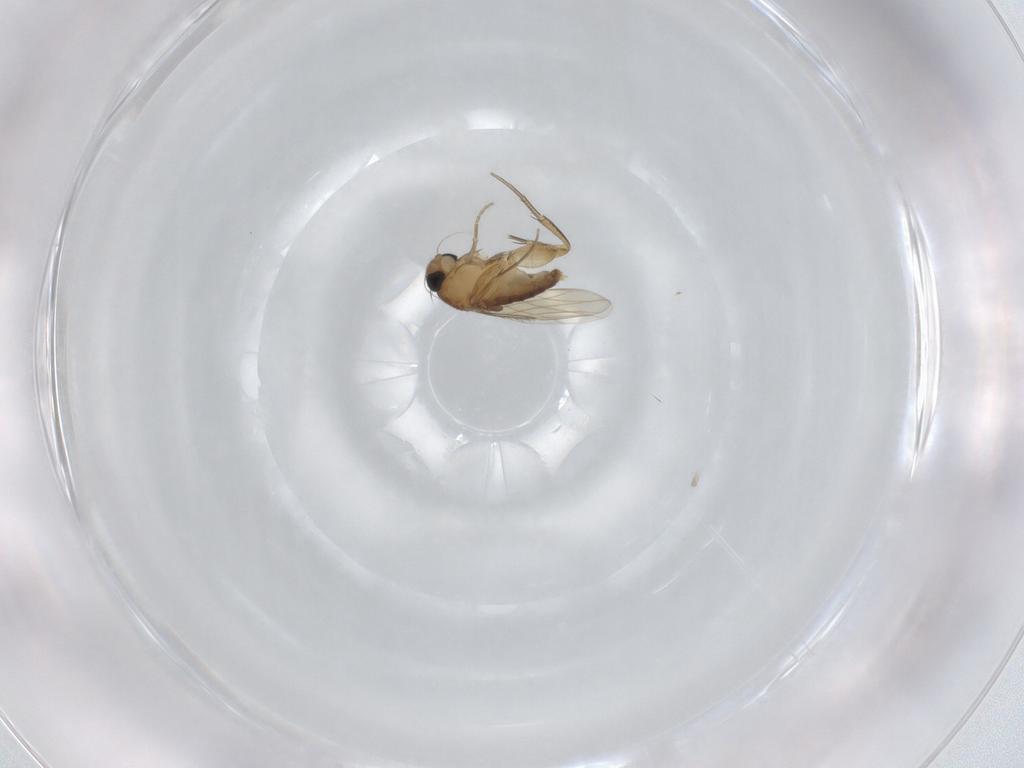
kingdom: Animalia
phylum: Arthropoda
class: Insecta
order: Diptera
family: Phoridae
